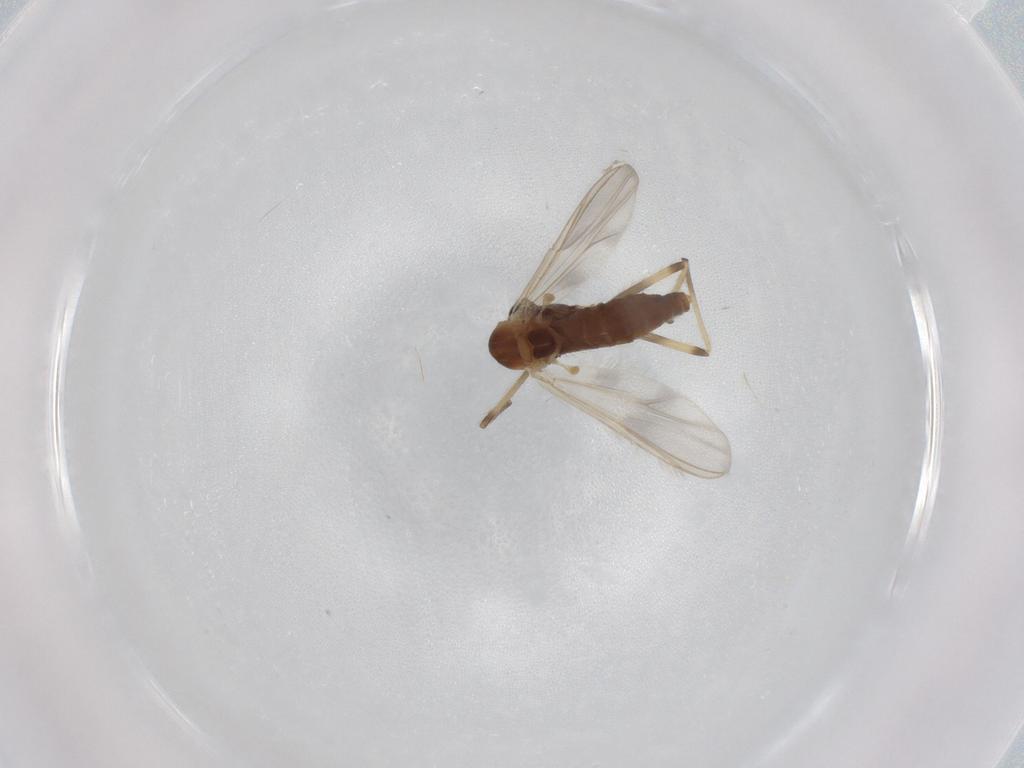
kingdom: Animalia
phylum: Arthropoda
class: Insecta
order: Diptera
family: Chironomidae
